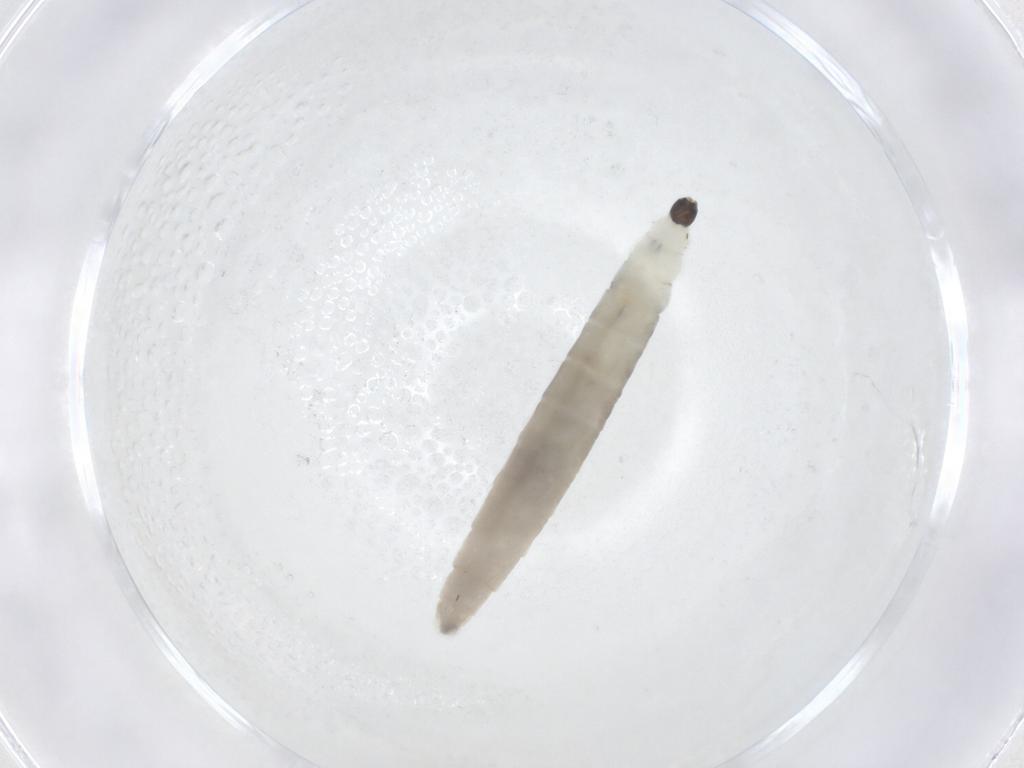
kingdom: Animalia
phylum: Arthropoda
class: Insecta
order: Diptera
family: Sciaridae
